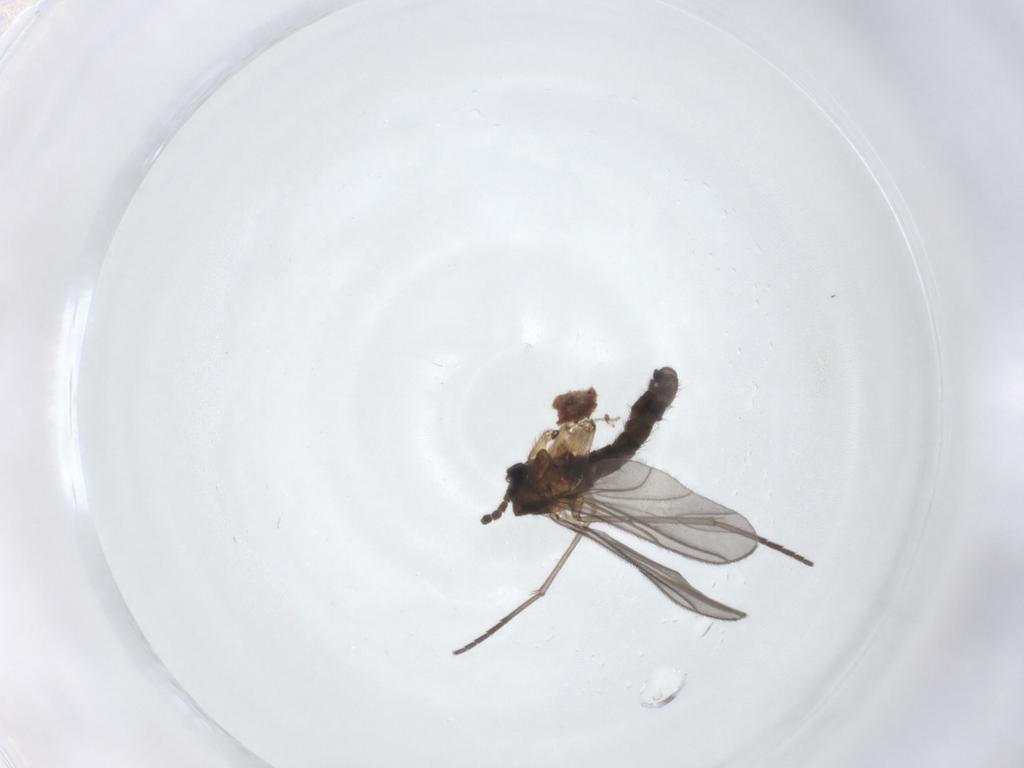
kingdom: Animalia
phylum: Arthropoda
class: Insecta
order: Diptera
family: Sciaridae
